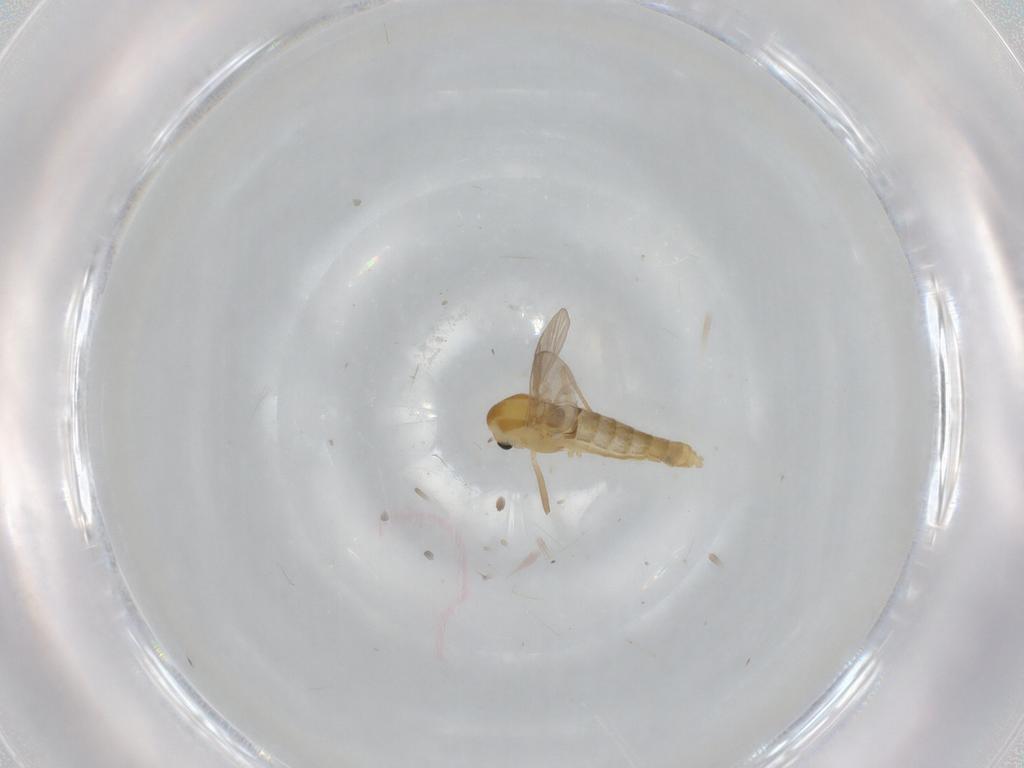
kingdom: Animalia
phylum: Arthropoda
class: Insecta
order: Diptera
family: Chironomidae
